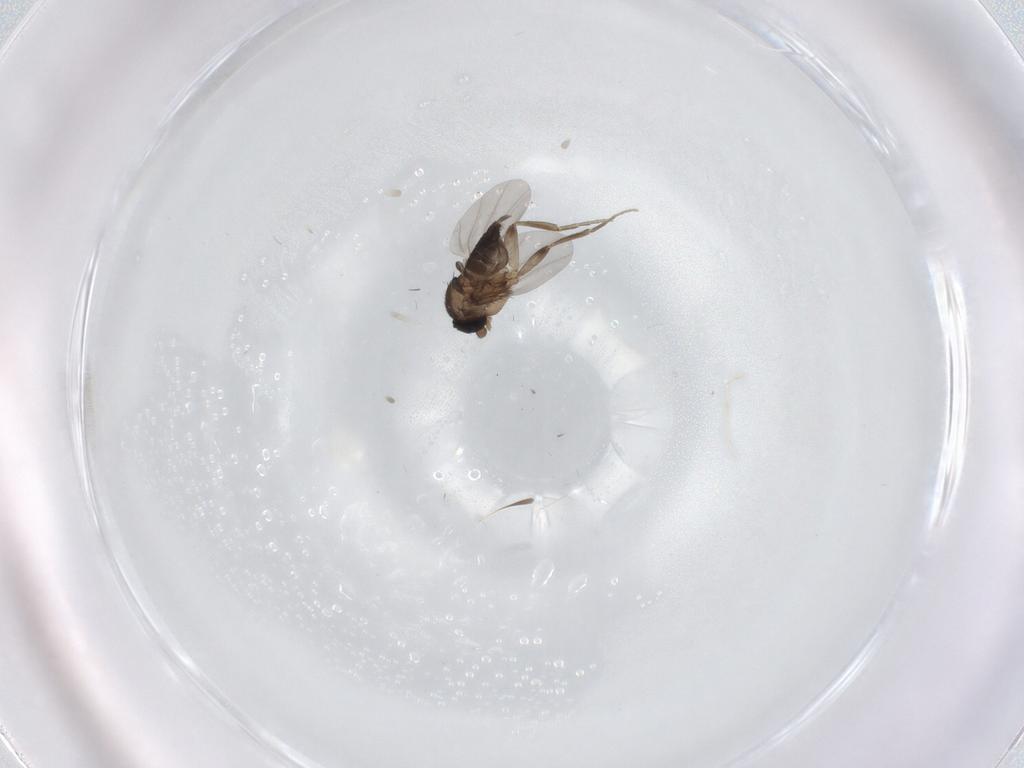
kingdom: Animalia
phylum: Arthropoda
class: Insecta
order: Diptera
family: Phoridae
